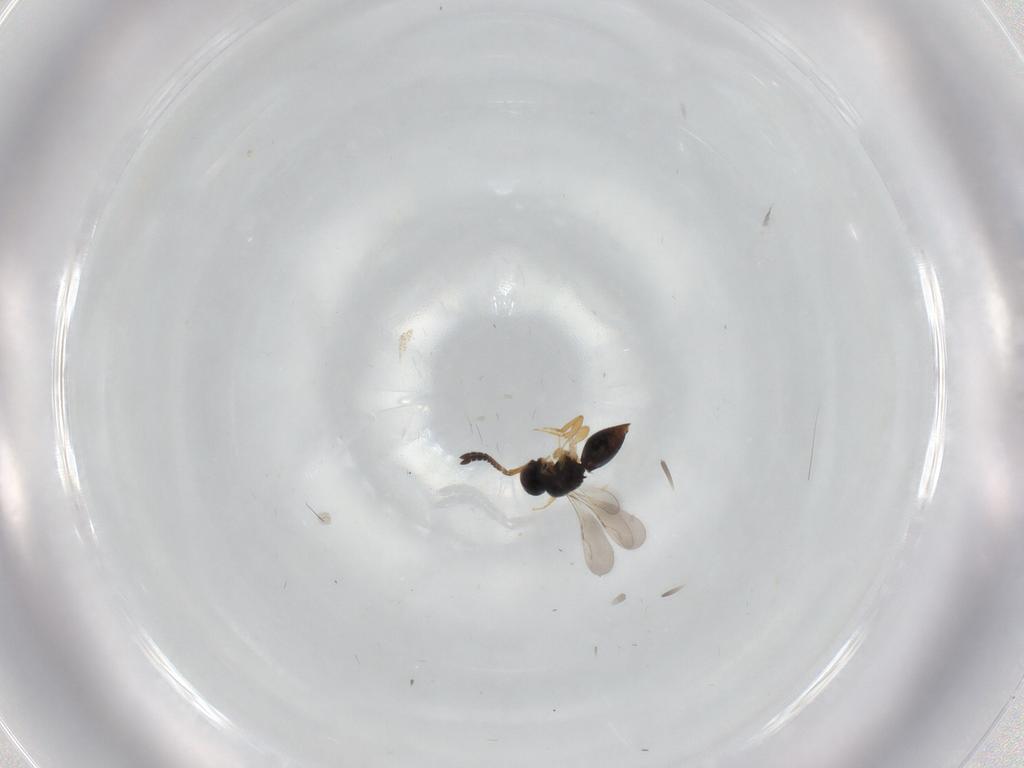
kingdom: Animalia
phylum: Arthropoda
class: Insecta
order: Hymenoptera
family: Ceraphronidae
